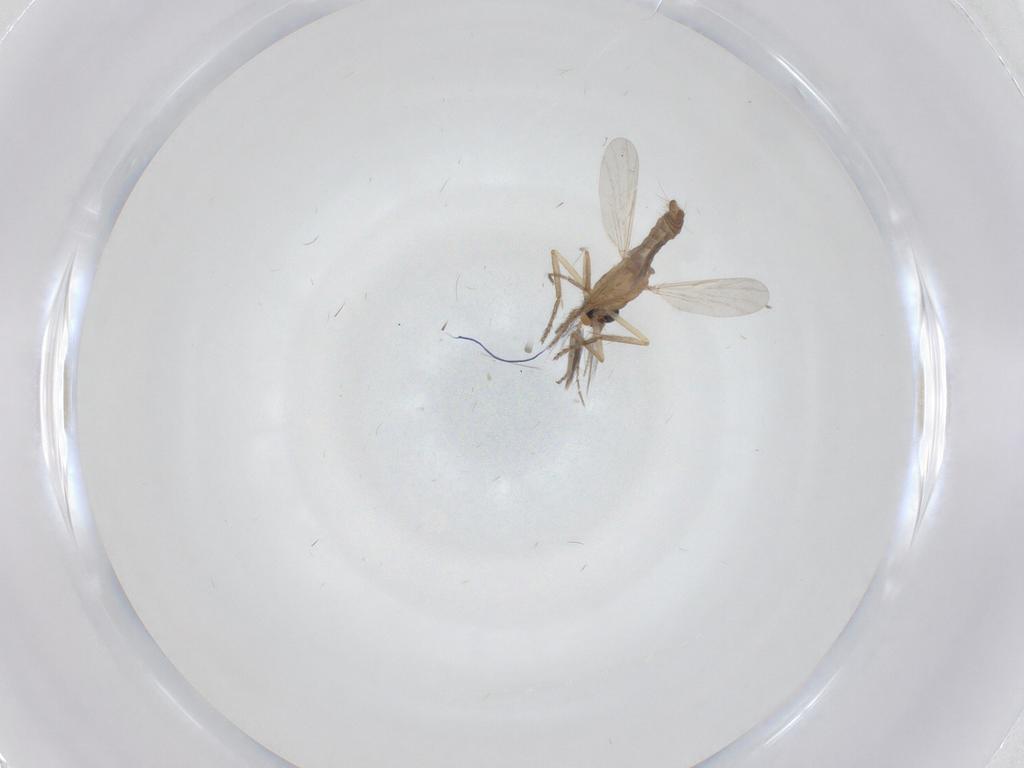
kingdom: Animalia
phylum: Arthropoda
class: Insecta
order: Diptera
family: Ceratopogonidae
